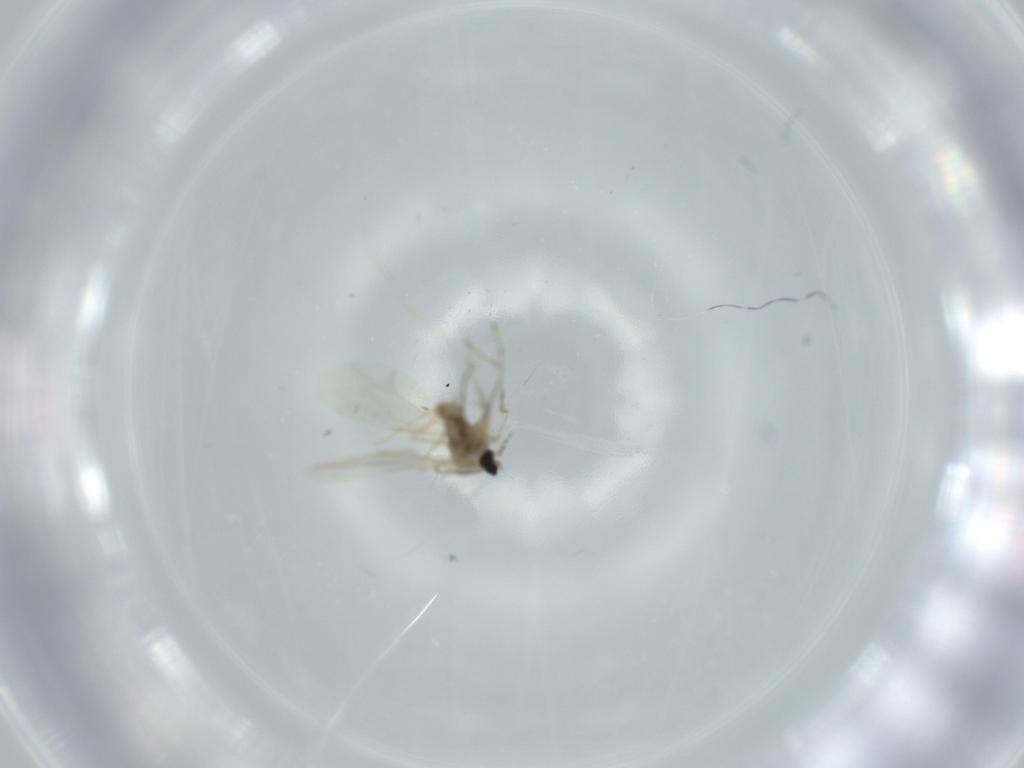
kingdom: Animalia
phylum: Arthropoda
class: Insecta
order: Diptera
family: Cecidomyiidae
